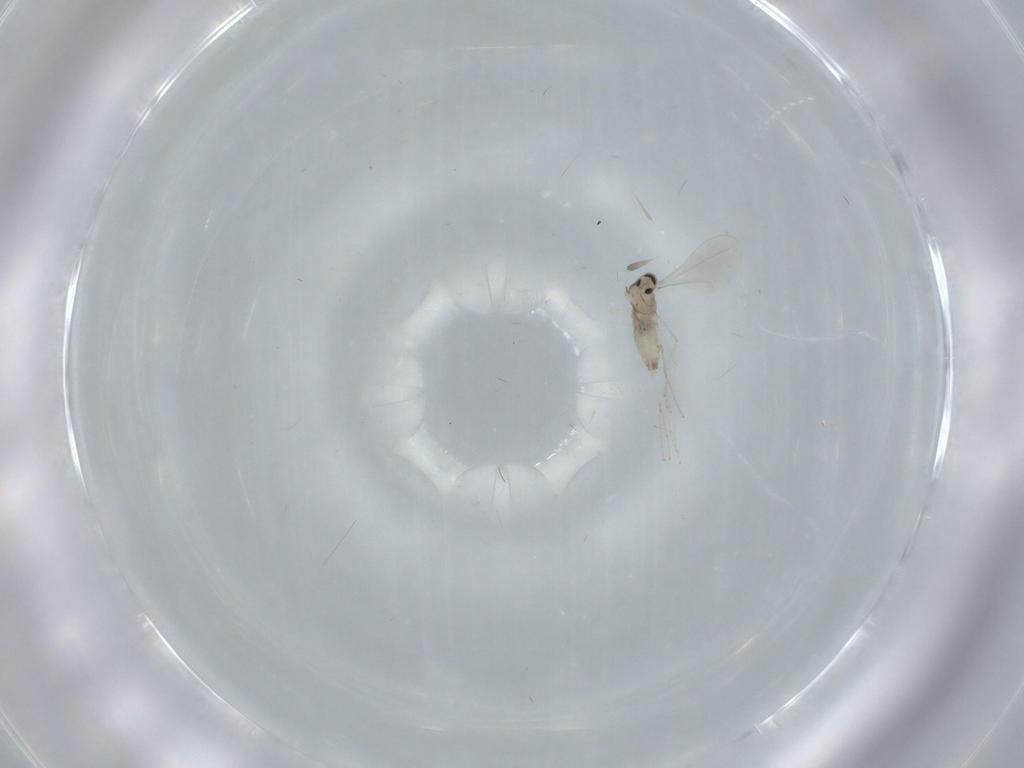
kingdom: Animalia
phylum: Arthropoda
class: Insecta
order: Diptera
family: Cecidomyiidae
